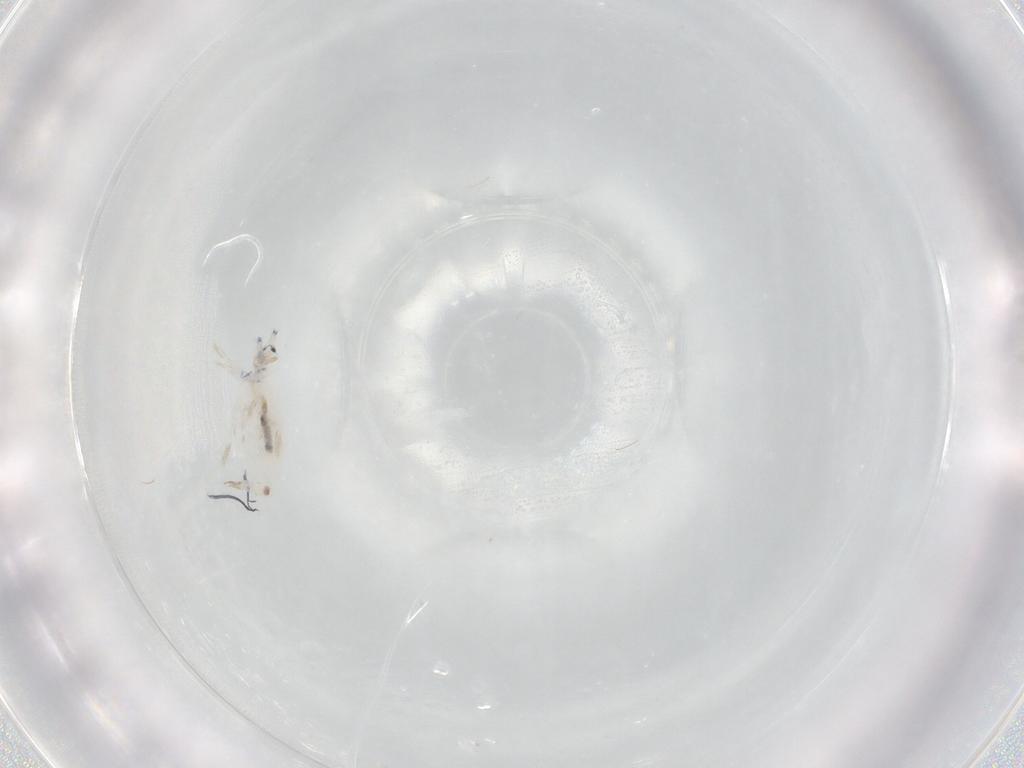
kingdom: Animalia
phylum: Arthropoda
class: Collembola
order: Entomobryomorpha
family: Entomobryidae
